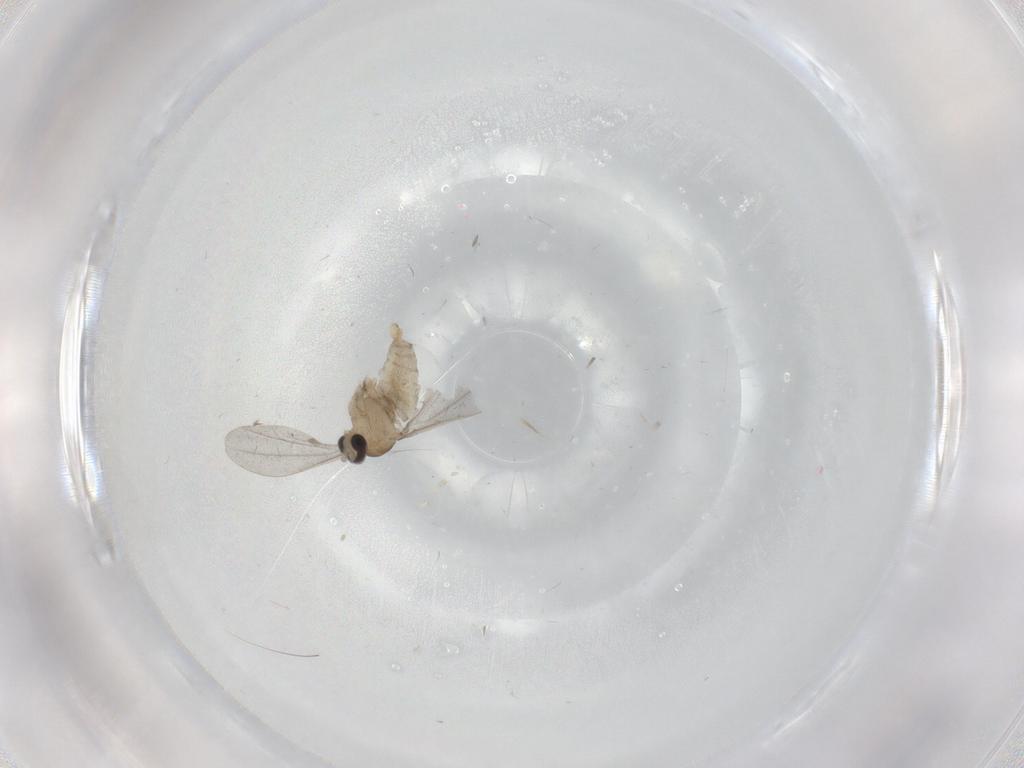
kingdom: Animalia
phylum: Arthropoda
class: Insecta
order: Diptera
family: Cecidomyiidae
